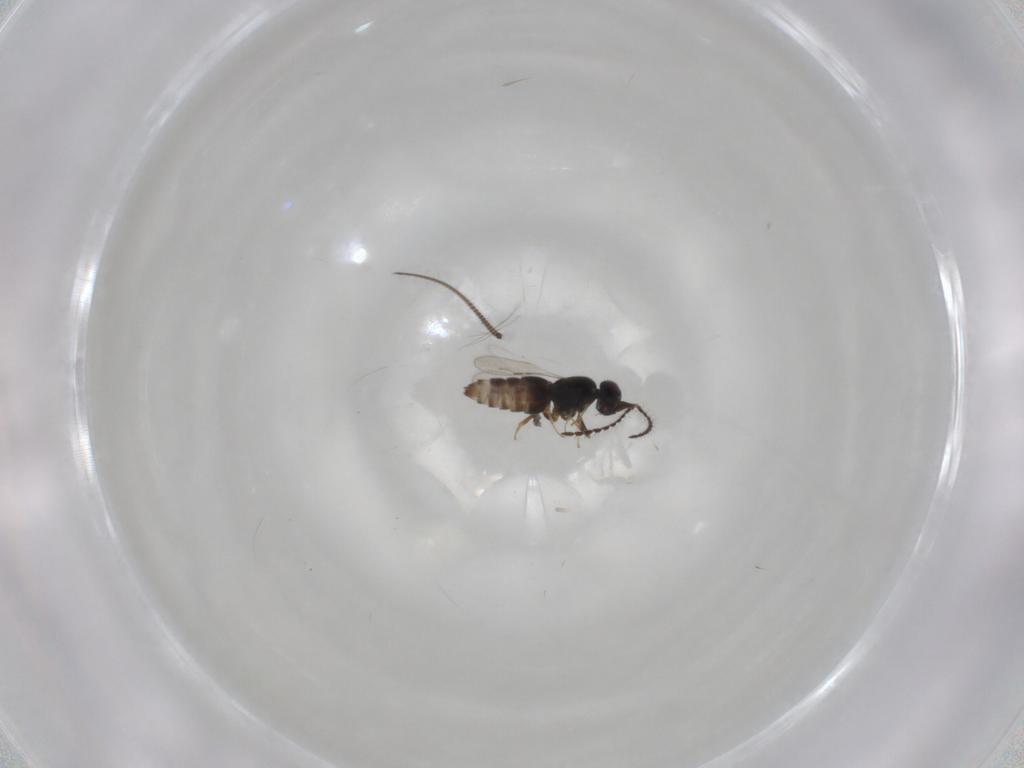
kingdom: Animalia
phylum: Arthropoda
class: Insecta
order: Hymenoptera
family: Ceraphronidae
